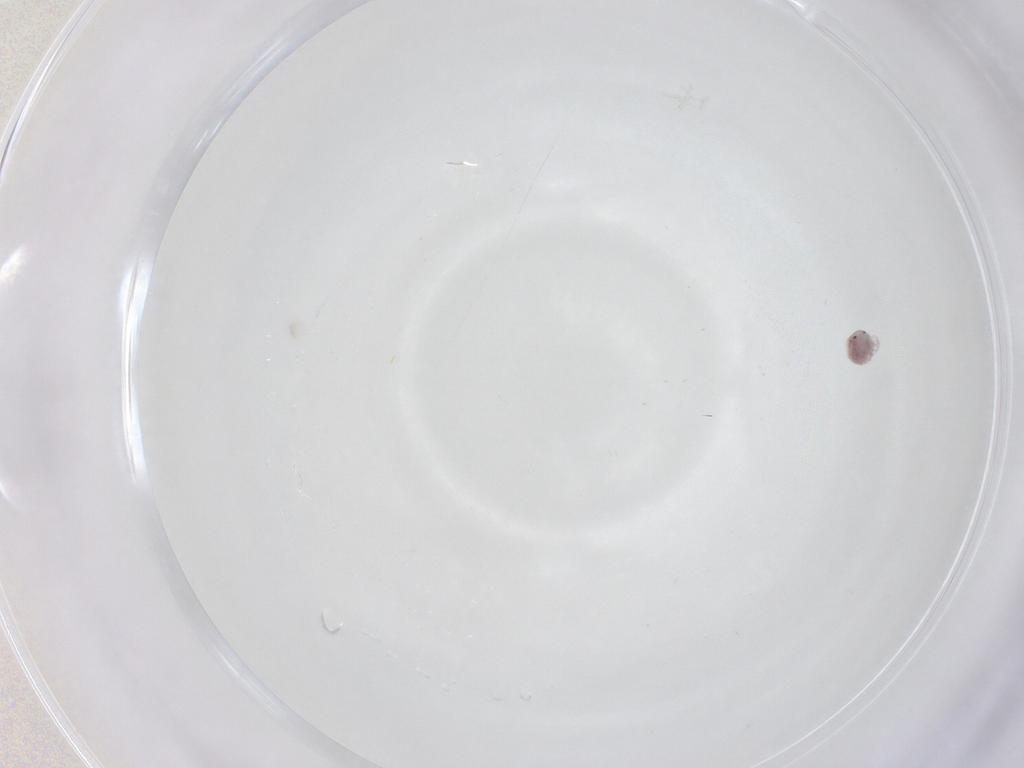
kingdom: Animalia
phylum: Arthropoda
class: Arachnida
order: Trombidiformes
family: Pionidae
